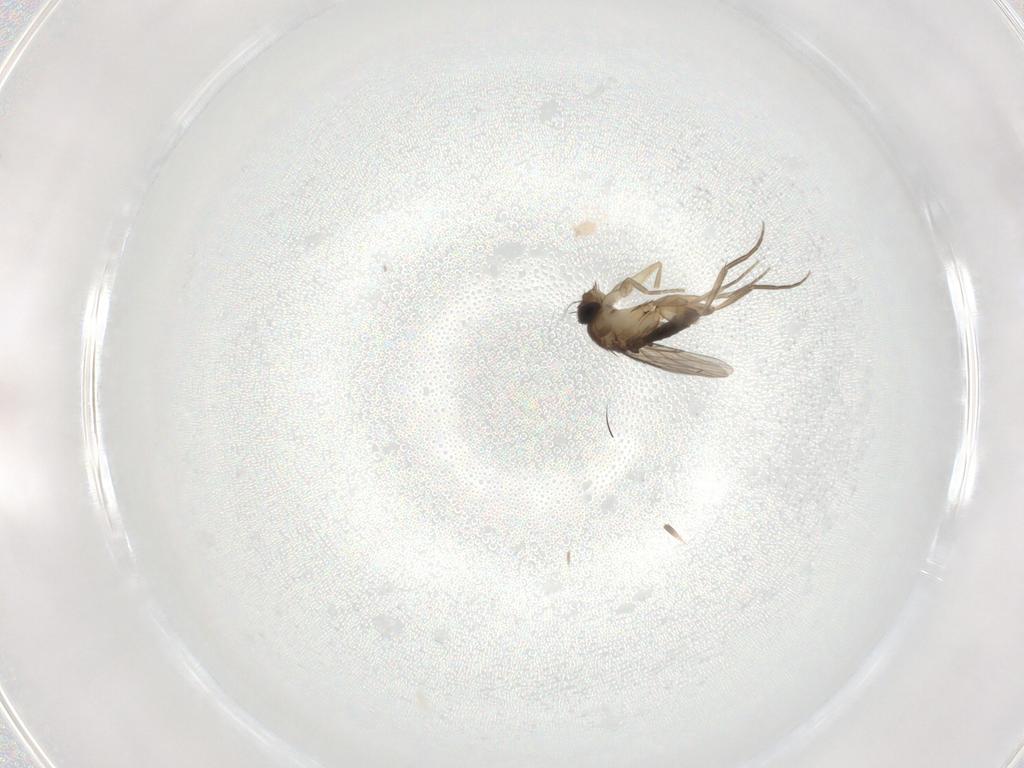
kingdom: Animalia
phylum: Arthropoda
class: Insecta
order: Diptera
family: Phoridae
